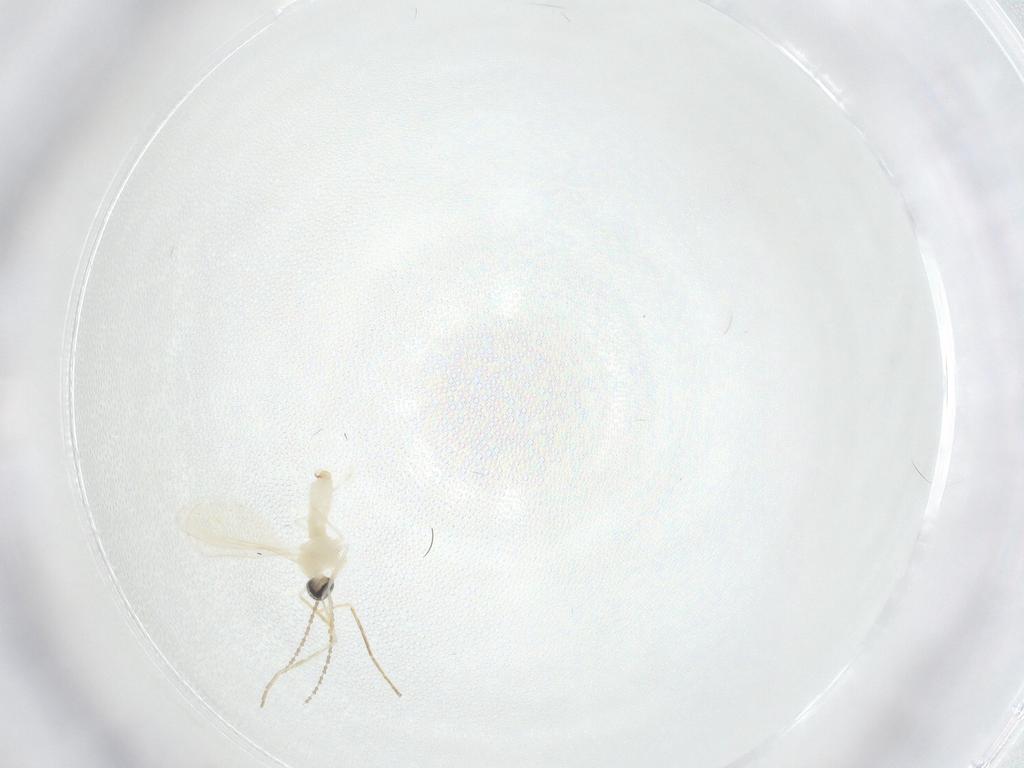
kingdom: Animalia
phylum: Arthropoda
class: Insecta
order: Diptera
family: Cecidomyiidae
